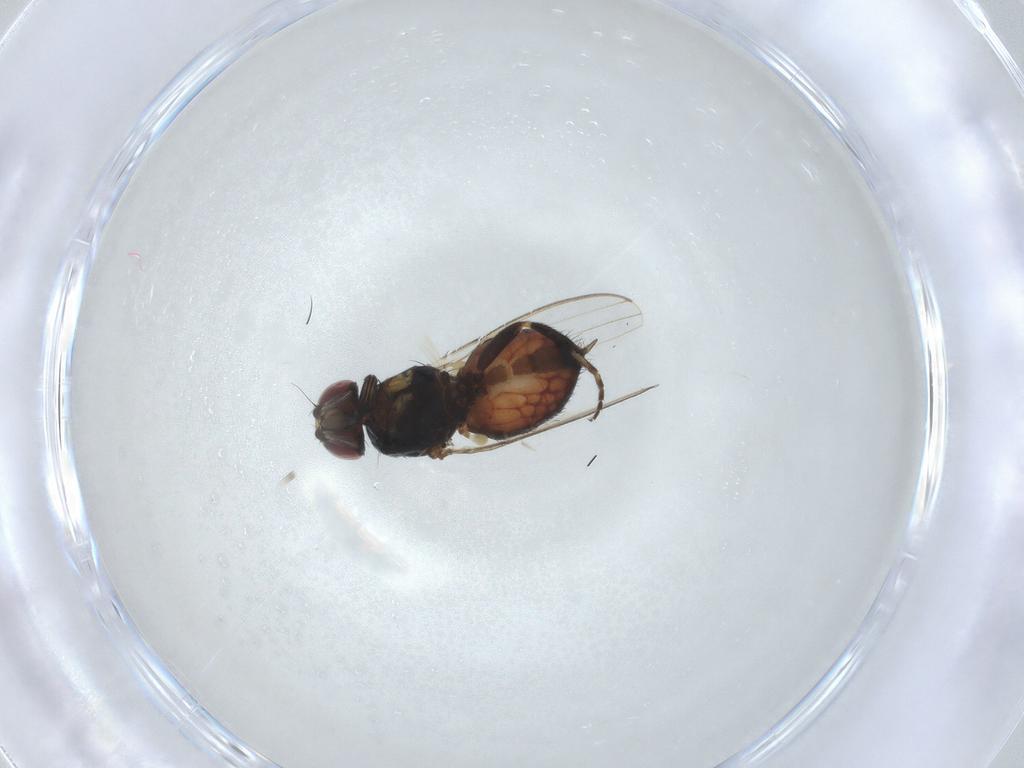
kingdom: Animalia
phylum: Arthropoda
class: Insecta
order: Diptera
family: Milichiidae
